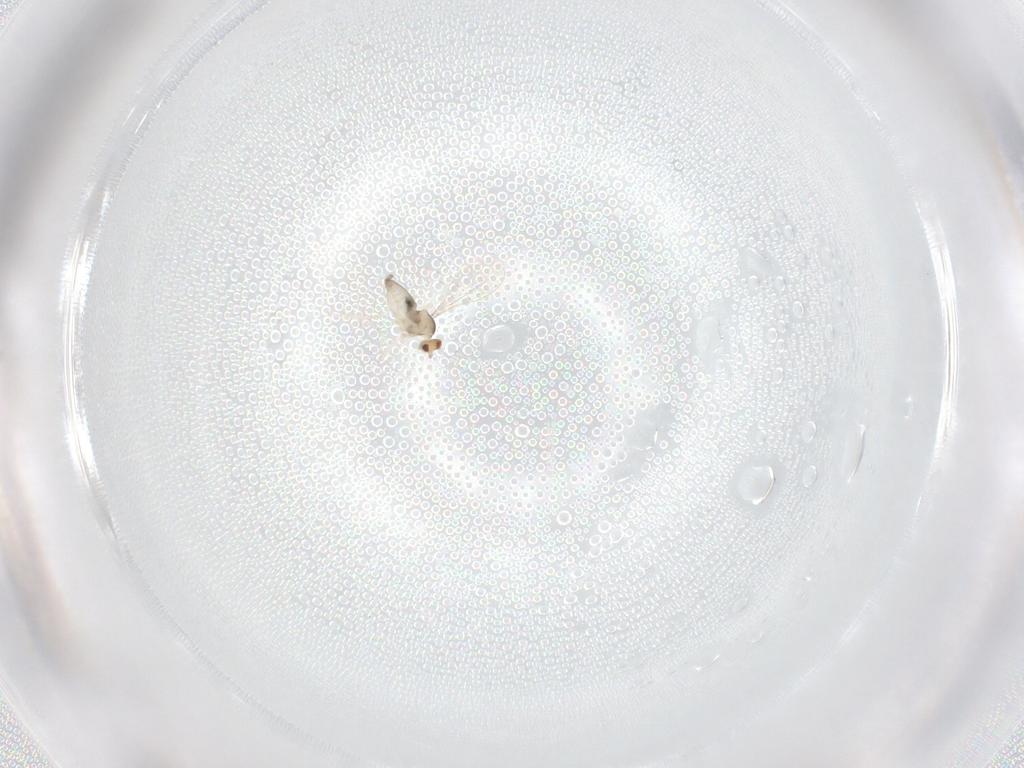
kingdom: Animalia
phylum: Arthropoda
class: Insecta
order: Diptera
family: Cecidomyiidae
